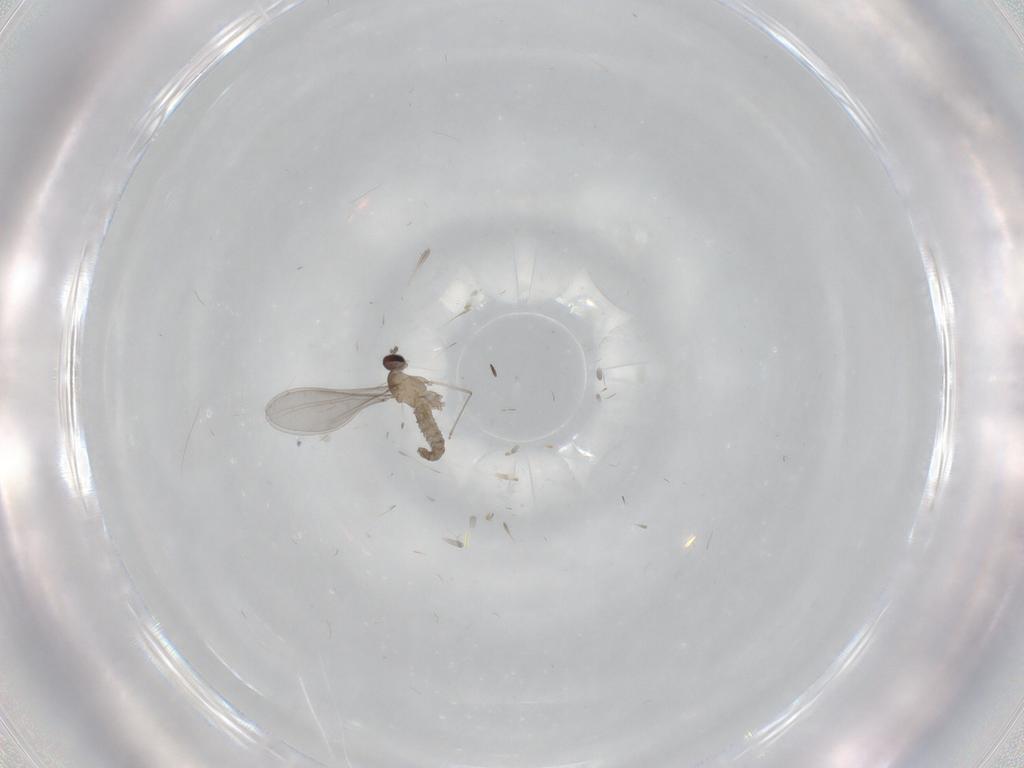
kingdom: Animalia
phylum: Arthropoda
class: Insecta
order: Diptera
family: Cecidomyiidae
